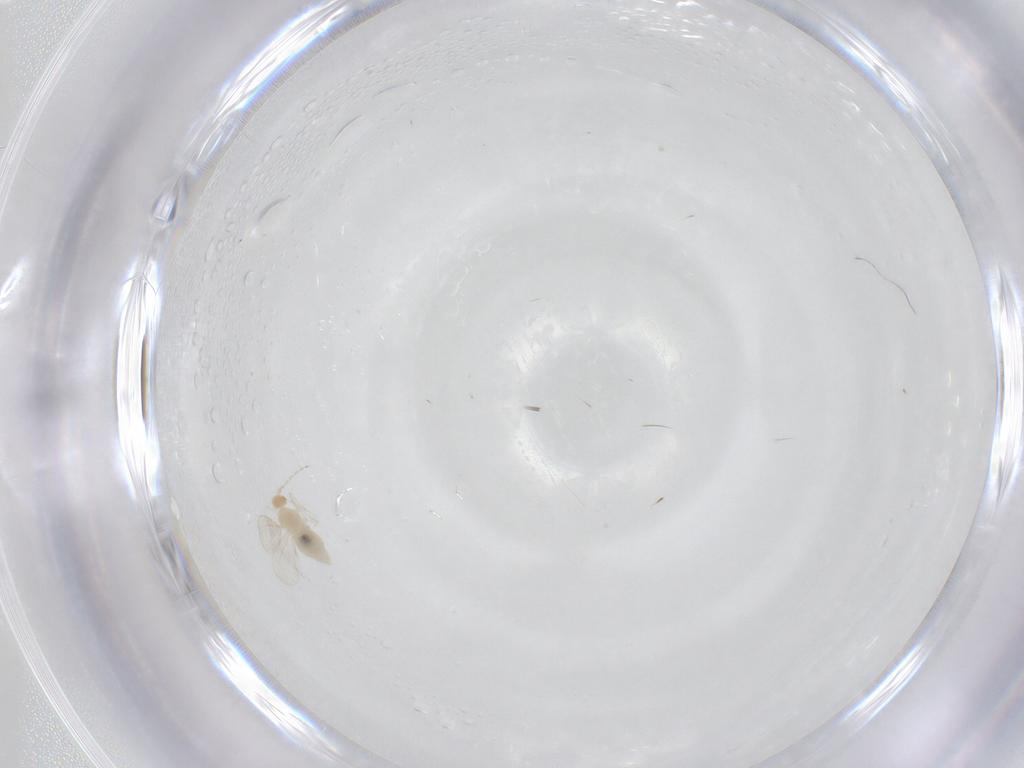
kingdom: Animalia
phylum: Arthropoda
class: Insecta
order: Diptera
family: Cecidomyiidae
